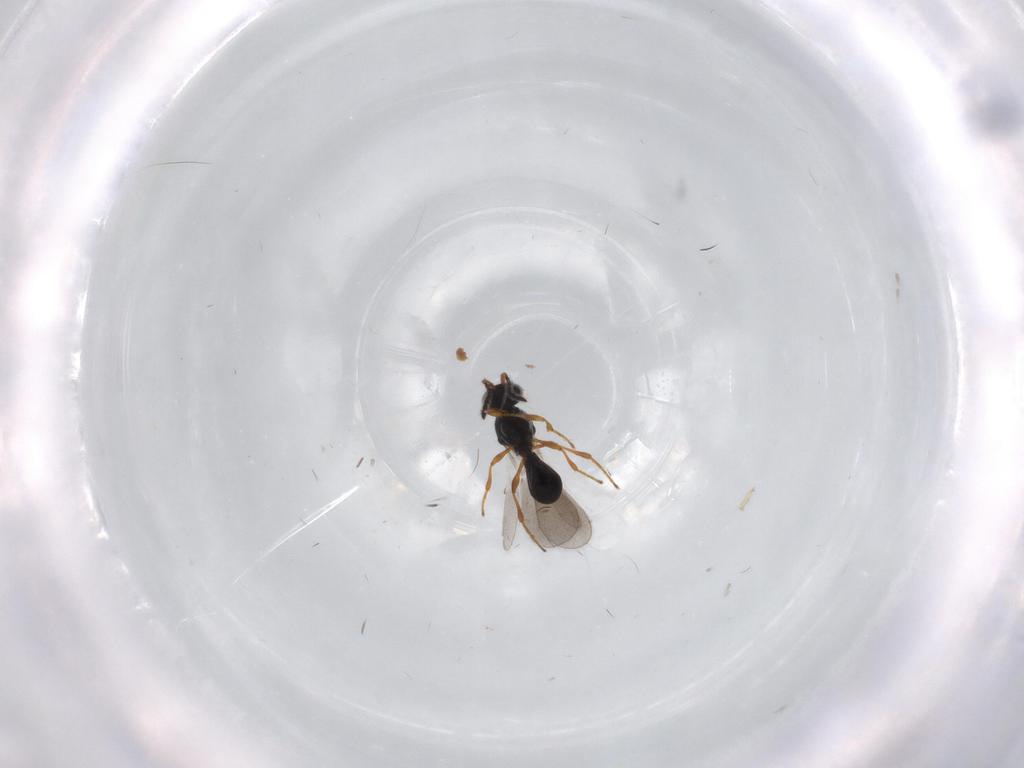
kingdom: Animalia
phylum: Arthropoda
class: Insecta
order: Hymenoptera
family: Platygastridae
